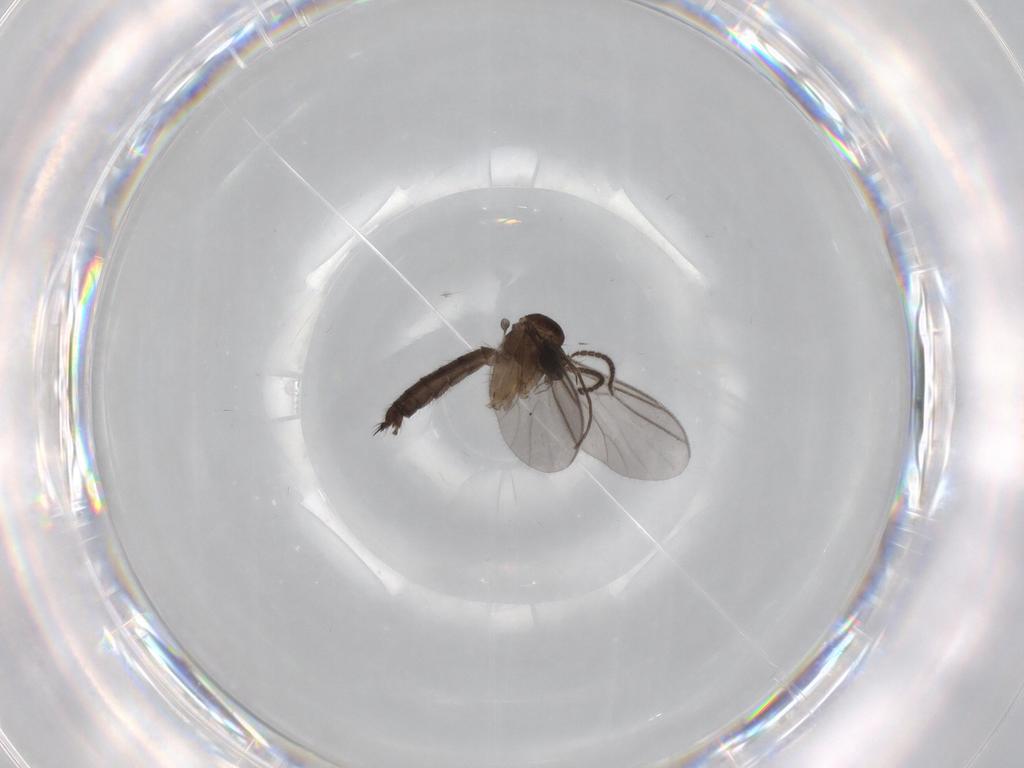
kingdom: Animalia
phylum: Arthropoda
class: Insecta
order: Diptera
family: Mycetophilidae
